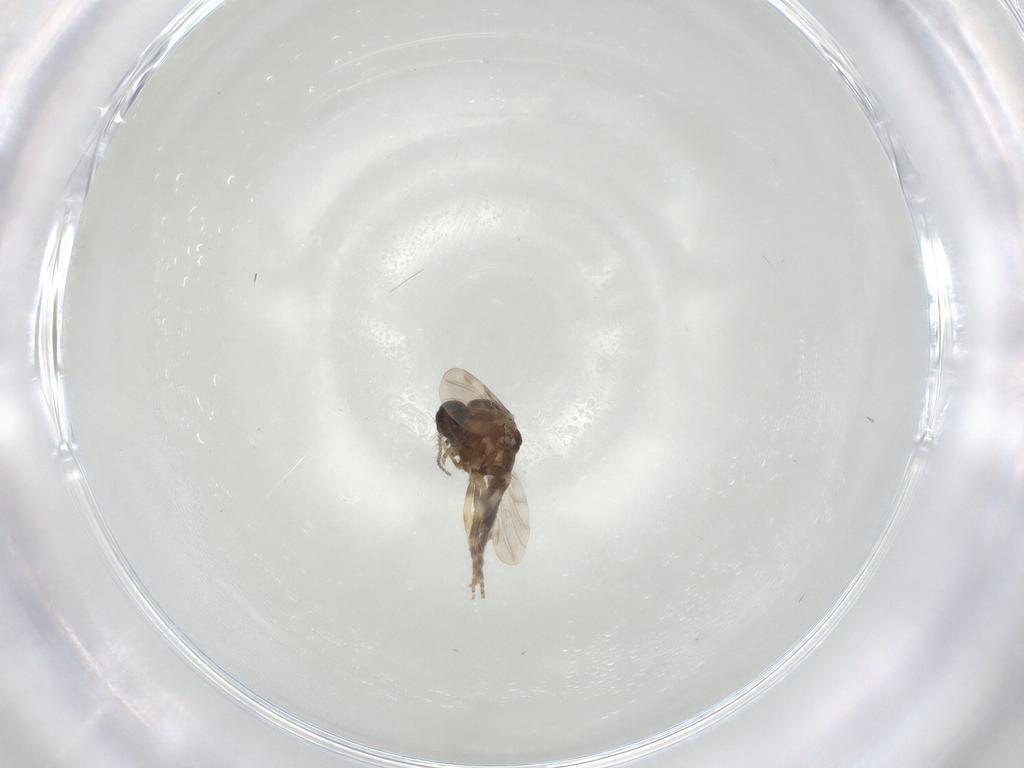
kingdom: Animalia
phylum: Arthropoda
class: Insecta
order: Diptera
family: Sciaridae
